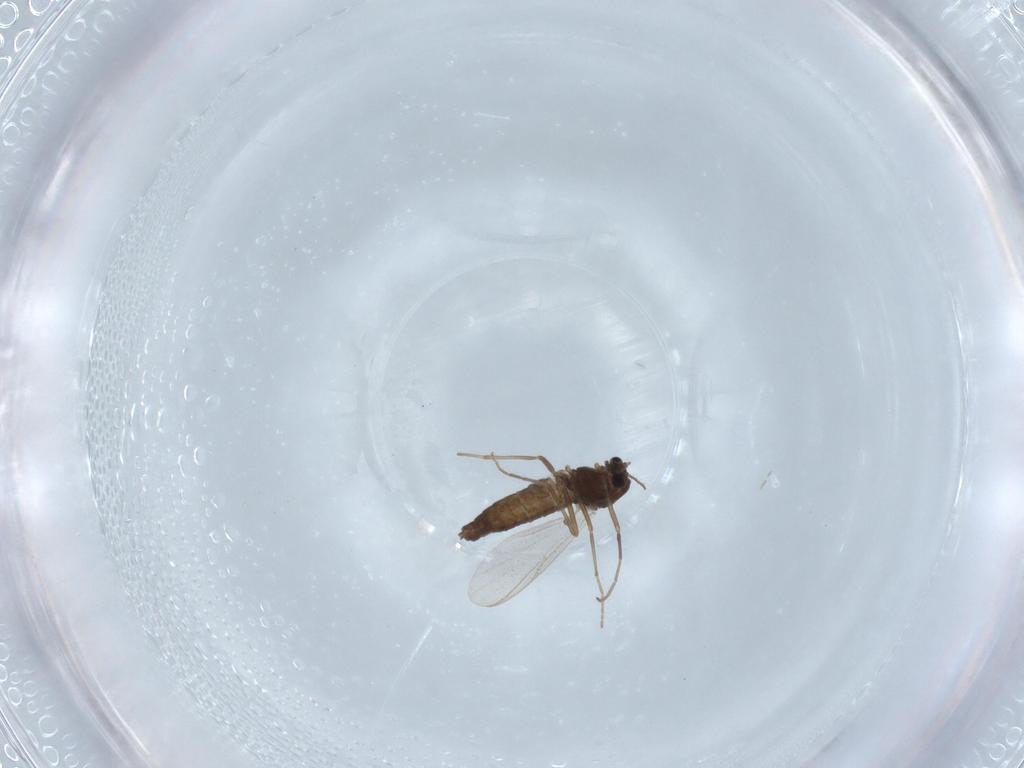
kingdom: Animalia
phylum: Arthropoda
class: Insecta
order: Diptera
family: Chironomidae
